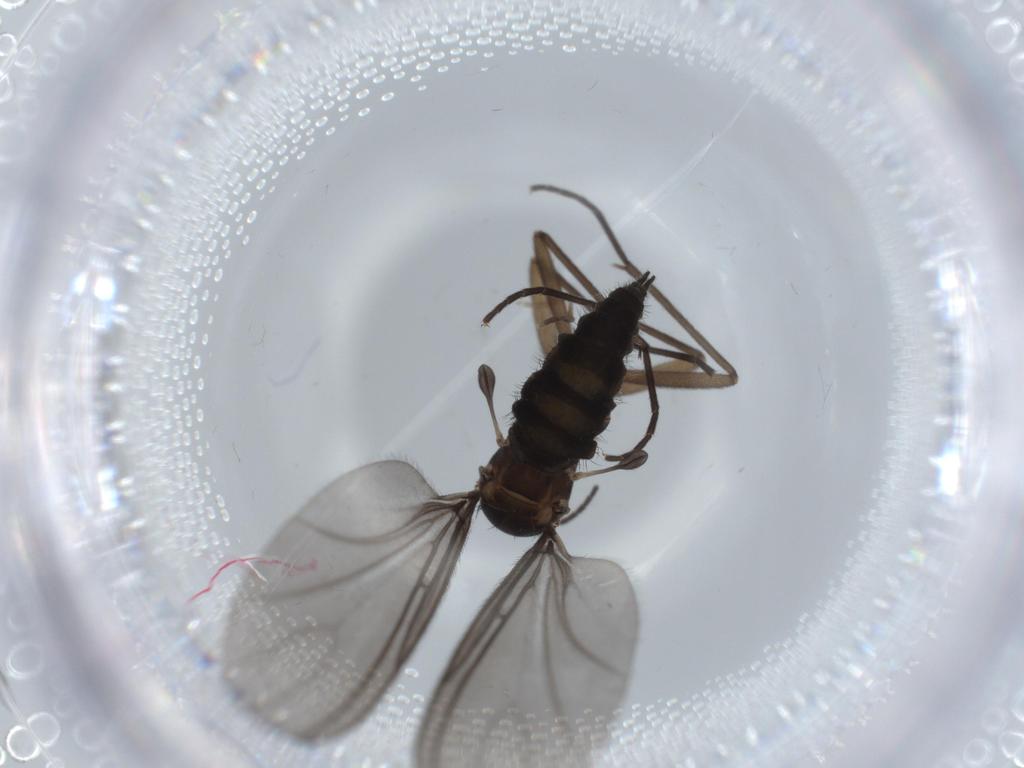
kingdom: Animalia
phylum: Arthropoda
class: Insecta
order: Diptera
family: Sciaridae
